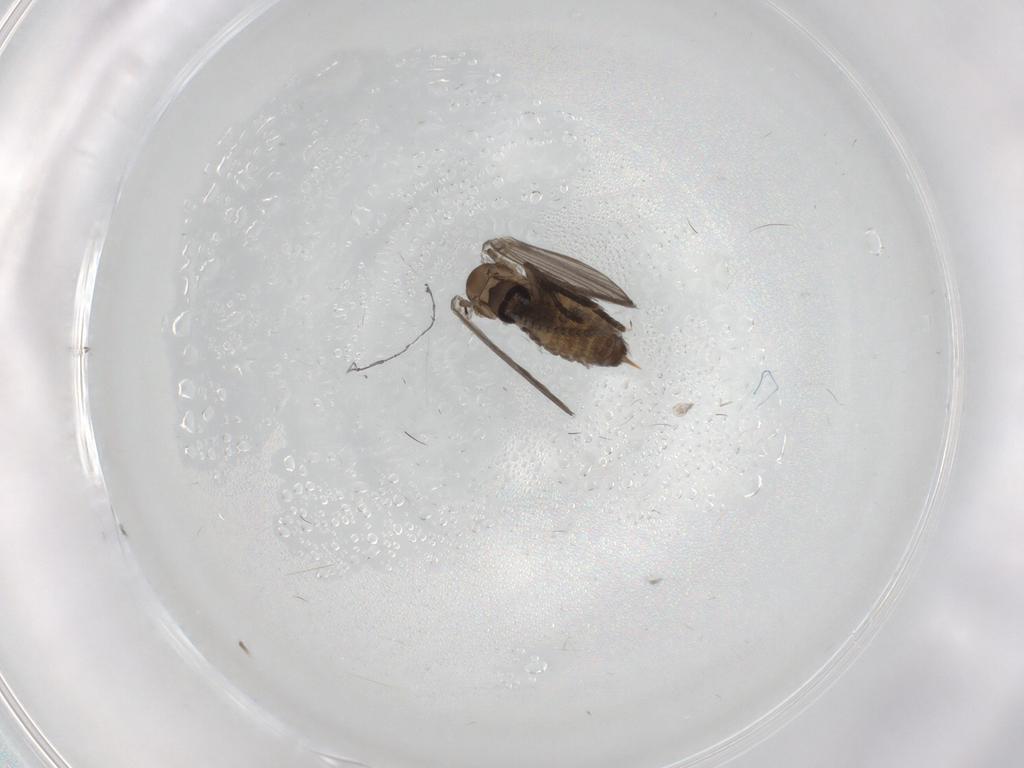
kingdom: Animalia
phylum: Arthropoda
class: Insecta
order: Diptera
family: Psychodidae
